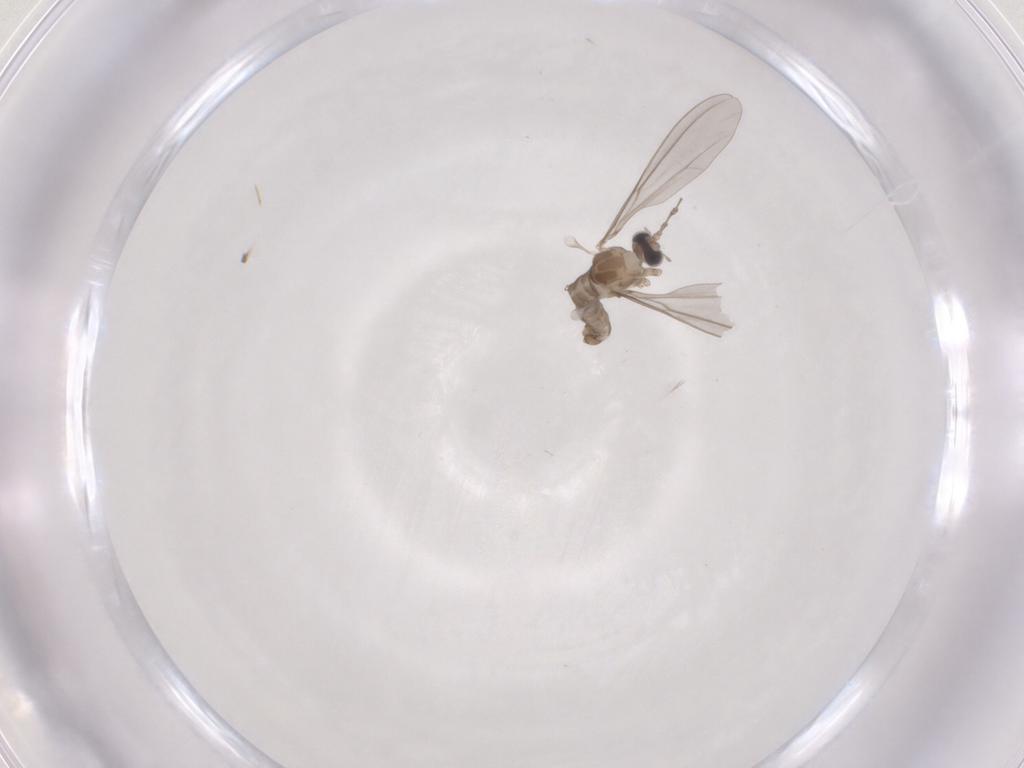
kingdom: Animalia
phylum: Arthropoda
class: Insecta
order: Diptera
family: Cecidomyiidae
